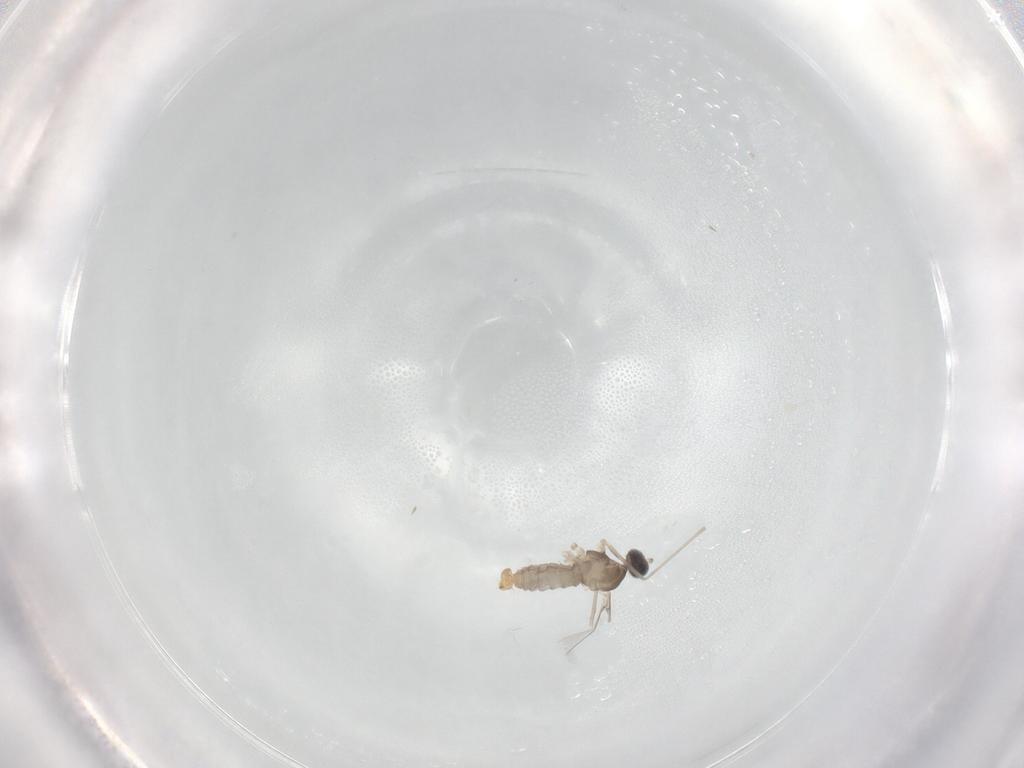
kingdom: Animalia
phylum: Arthropoda
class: Insecta
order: Diptera
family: Cecidomyiidae
